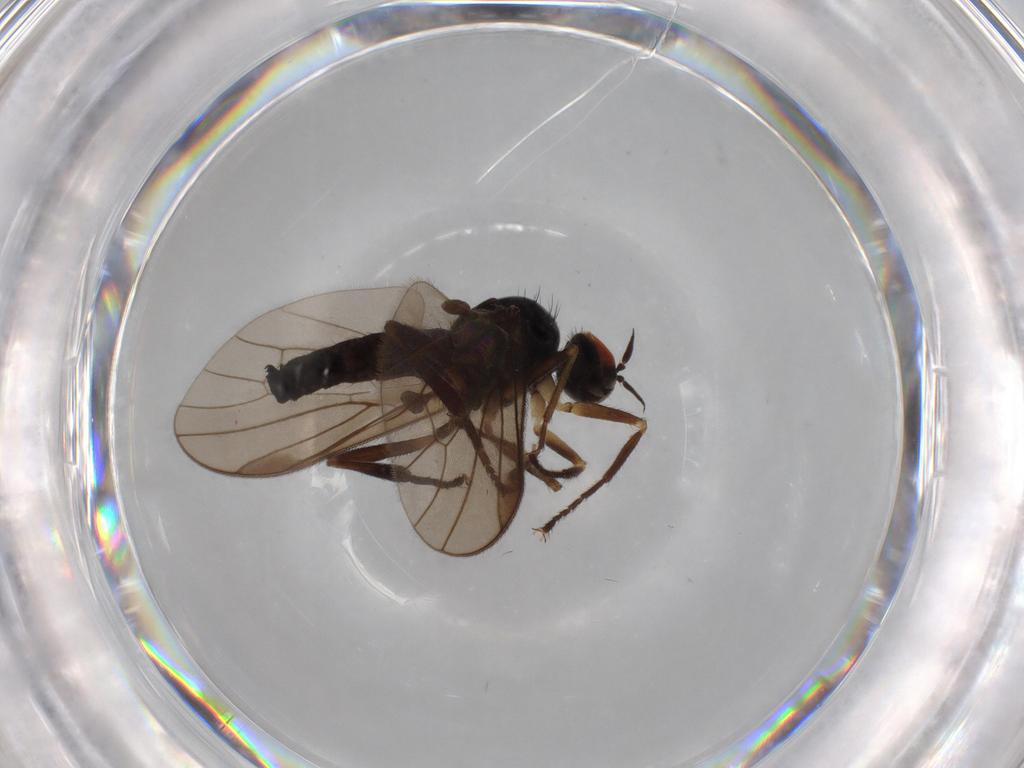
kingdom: Animalia
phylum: Arthropoda
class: Insecta
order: Diptera
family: Hybotidae
